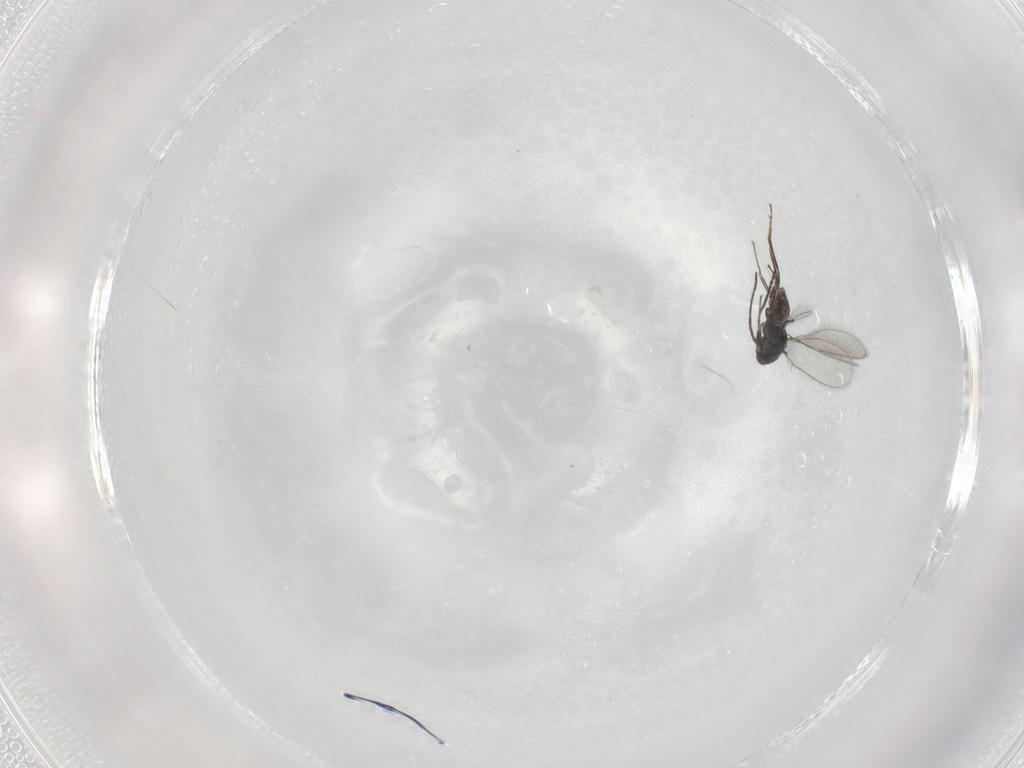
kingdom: Animalia
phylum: Arthropoda
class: Insecta
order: Hymenoptera
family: Mymaridae
